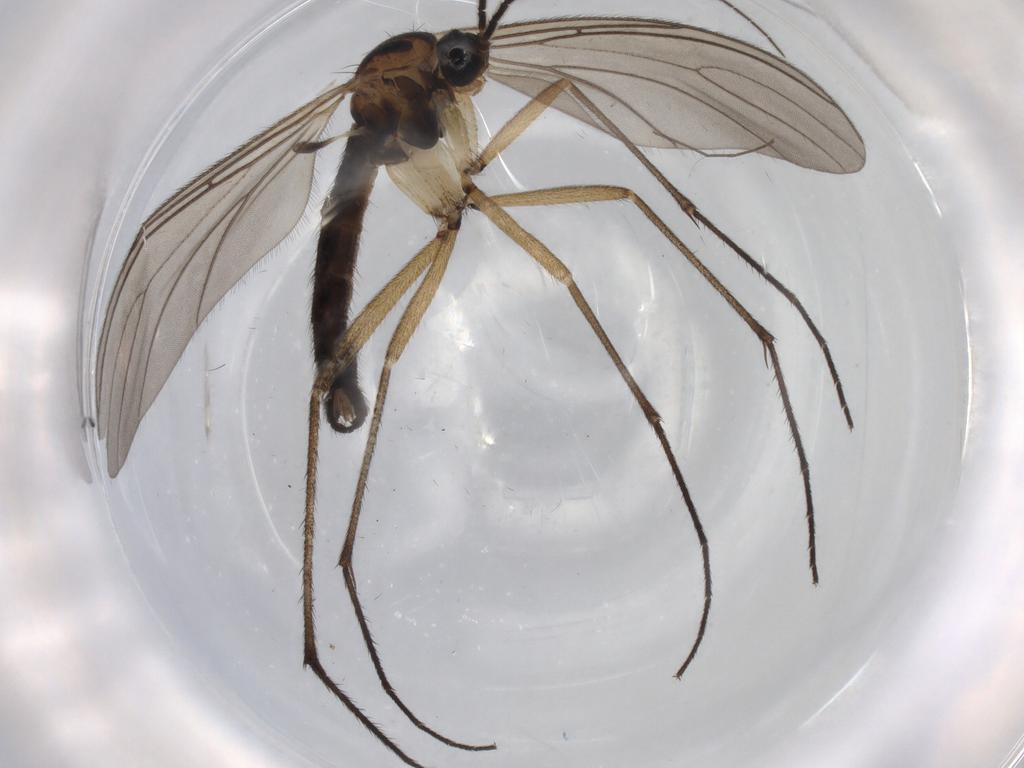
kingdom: Animalia
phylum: Arthropoda
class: Insecta
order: Diptera
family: Sciaridae
